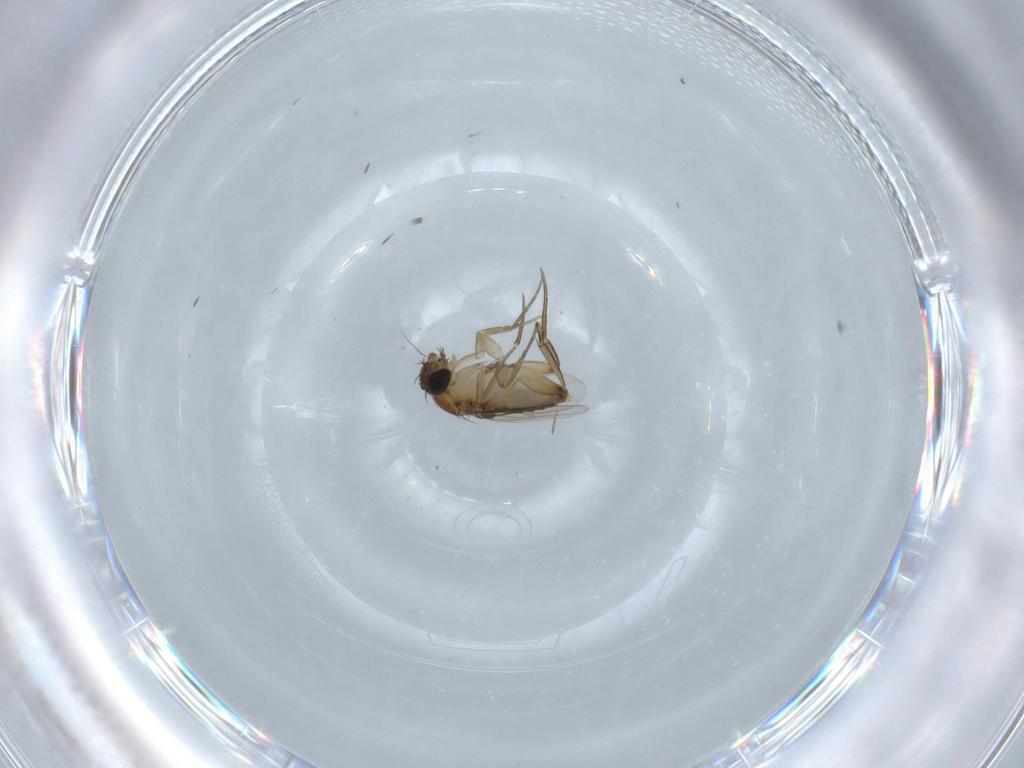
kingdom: Animalia
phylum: Arthropoda
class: Insecta
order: Diptera
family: Phoridae
